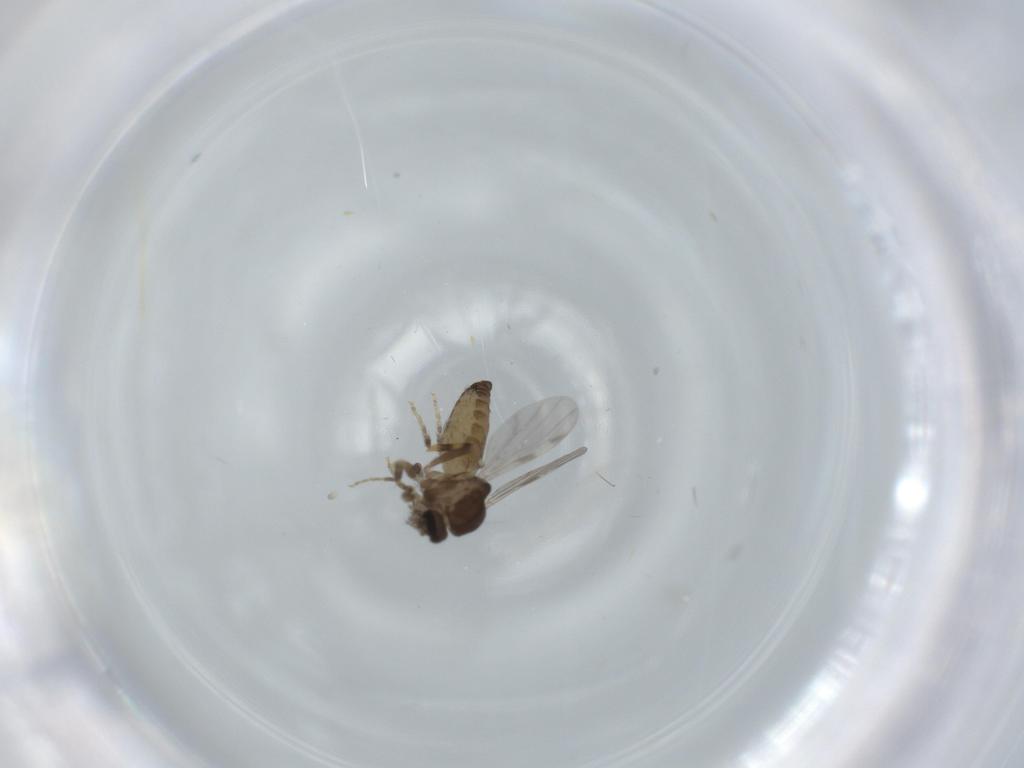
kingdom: Animalia
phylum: Arthropoda
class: Insecta
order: Diptera
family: Ceratopogonidae
